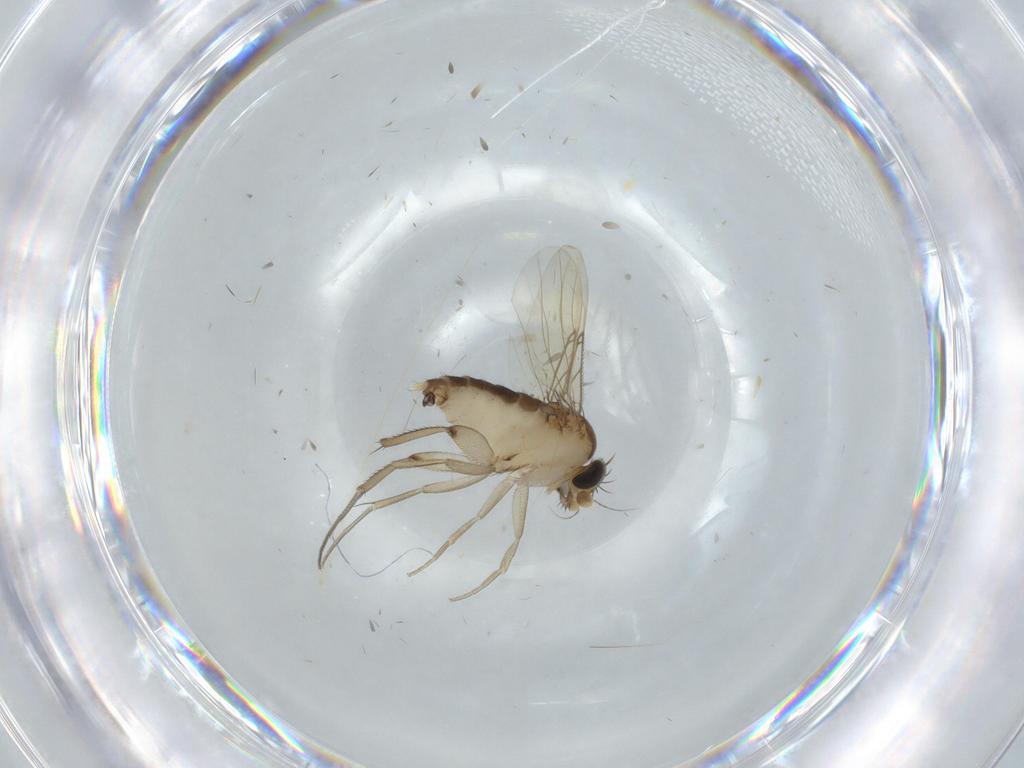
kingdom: Animalia
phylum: Arthropoda
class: Insecta
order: Diptera
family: Phoridae
